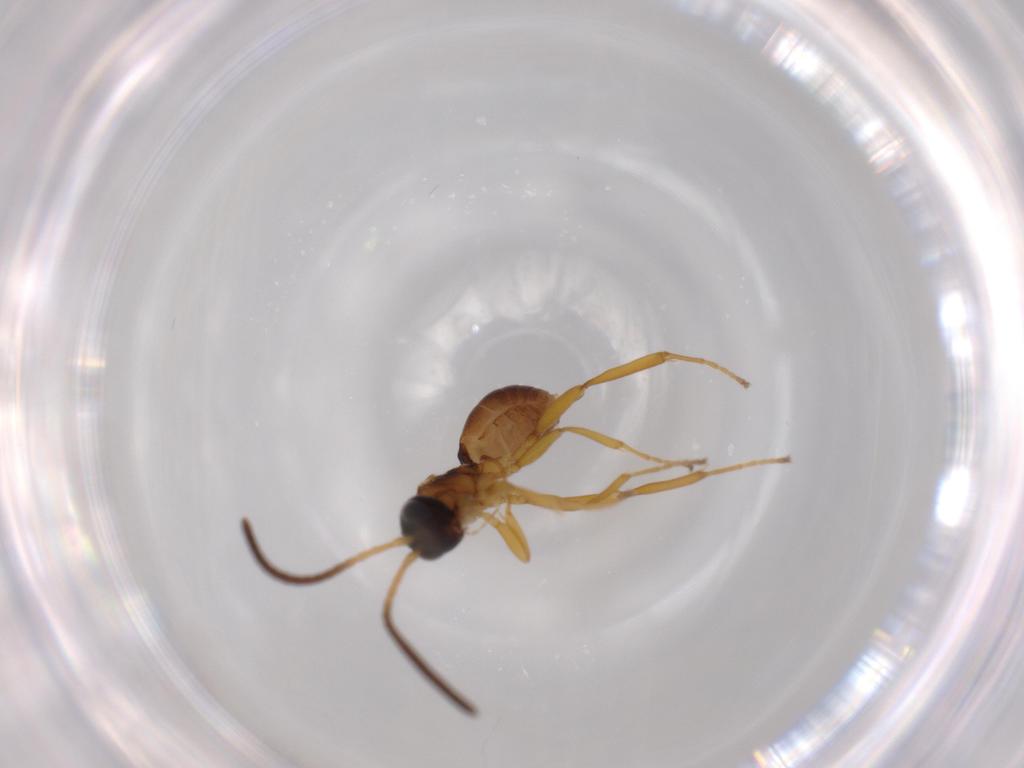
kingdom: Animalia
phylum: Arthropoda
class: Insecta
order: Hymenoptera
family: Ichneumonidae
